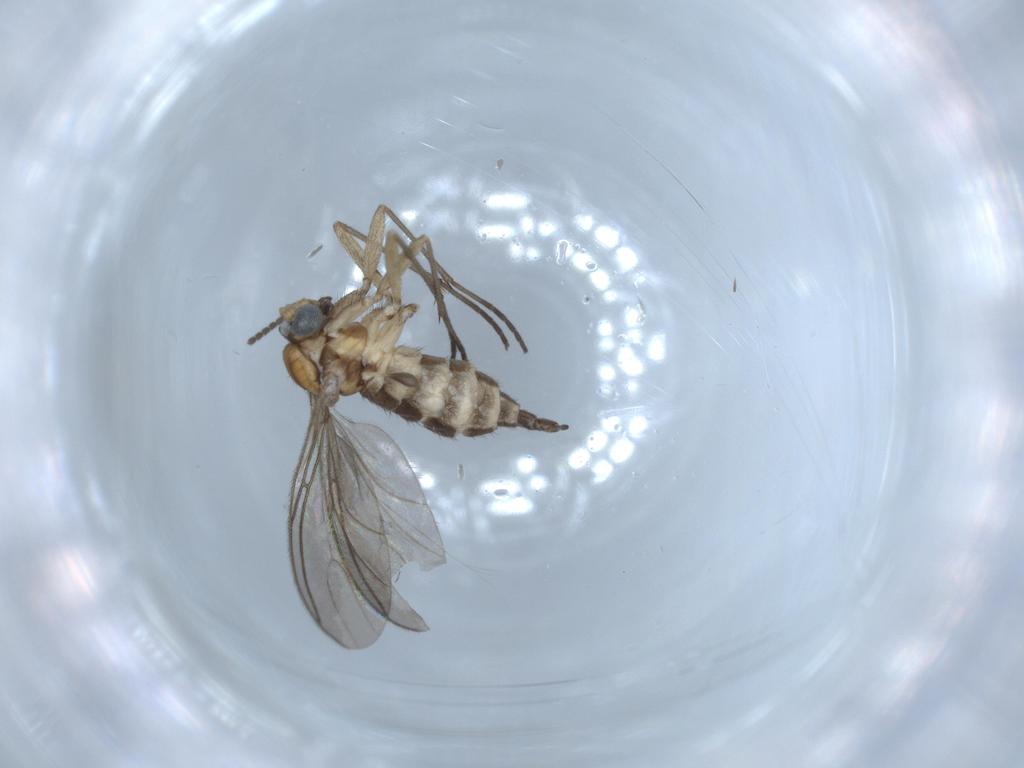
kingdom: Animalia
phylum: Arthropoda
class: Insecta
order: Diptera
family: Sciaridae
